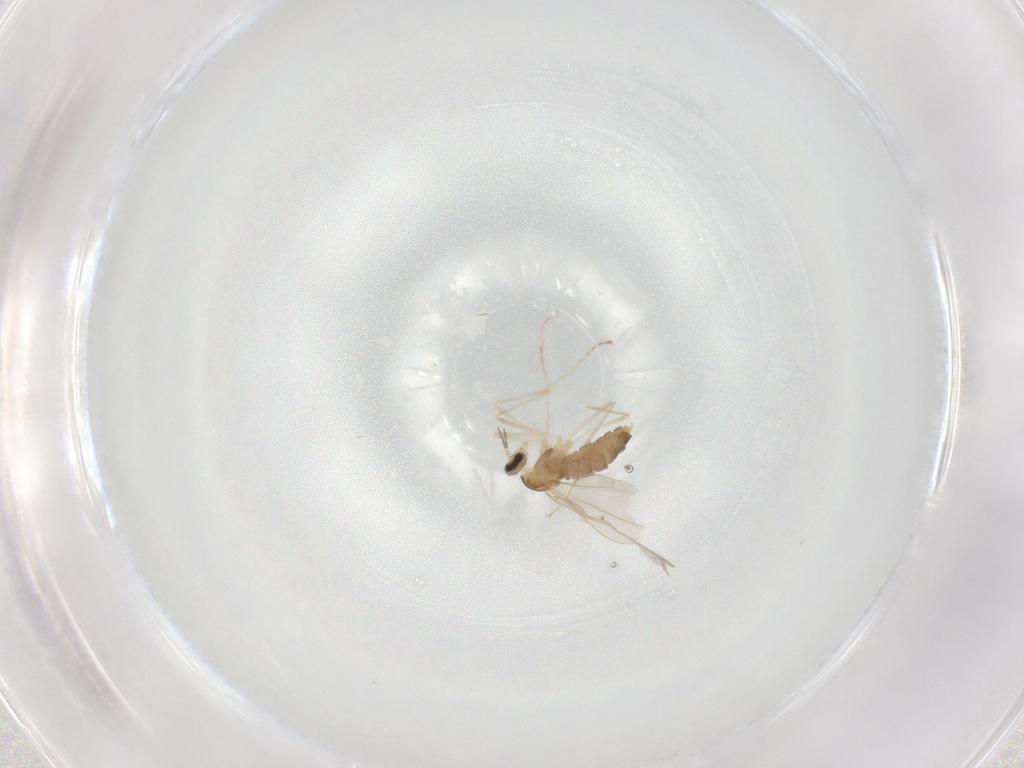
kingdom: Animalia
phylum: Arthropoda
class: Insecta
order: Diptera
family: Cecidomyiidae
